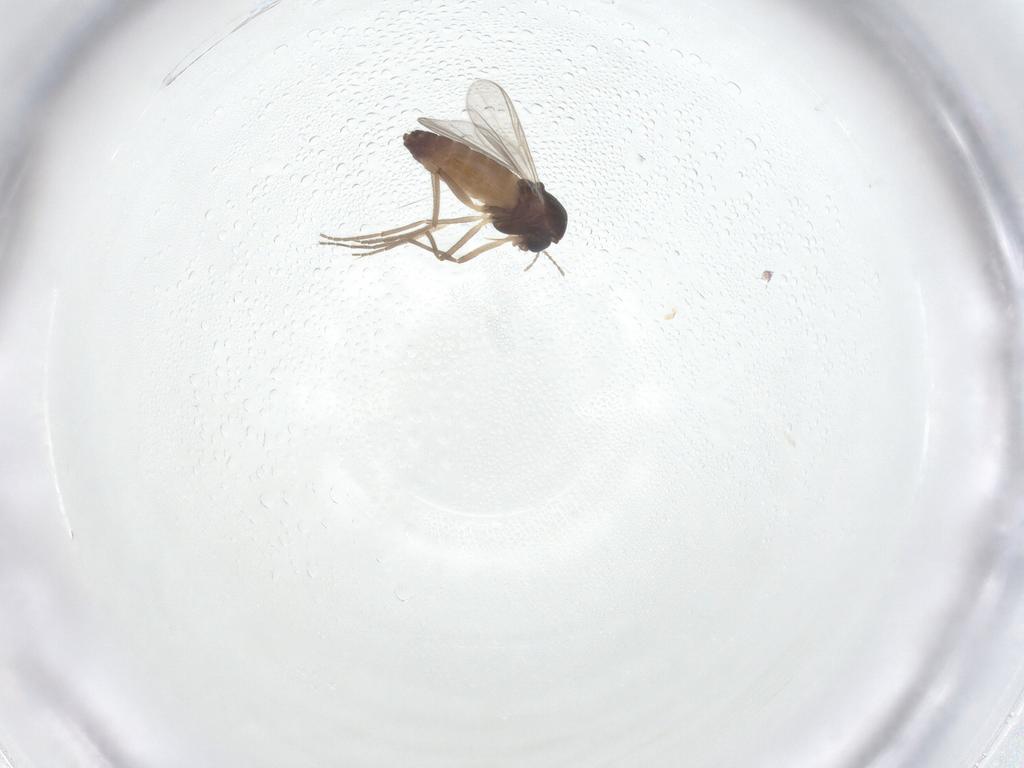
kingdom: Animalia
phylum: Arthropoda
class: Insecta
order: Diptera
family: Chironomidae
